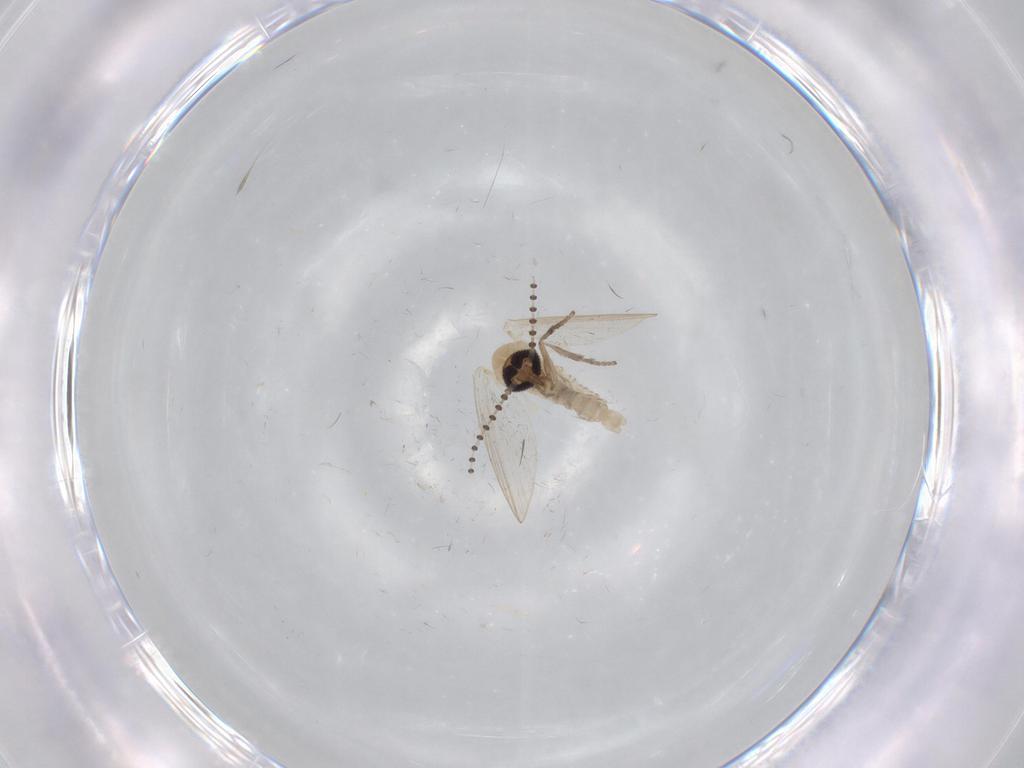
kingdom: Animalia
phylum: Arthropoda
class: Insecta
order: Diptera
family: Psychodidae
